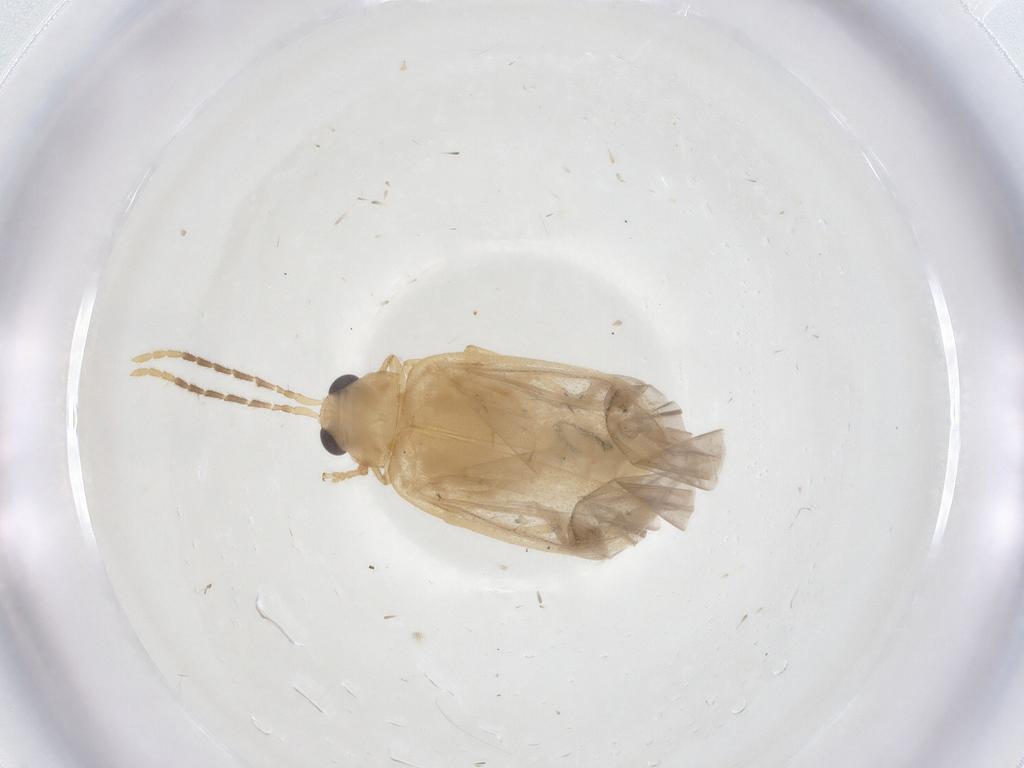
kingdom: Animalia
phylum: Arthropoda
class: Insecta
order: Coleoptera
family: Chrysomelidae
